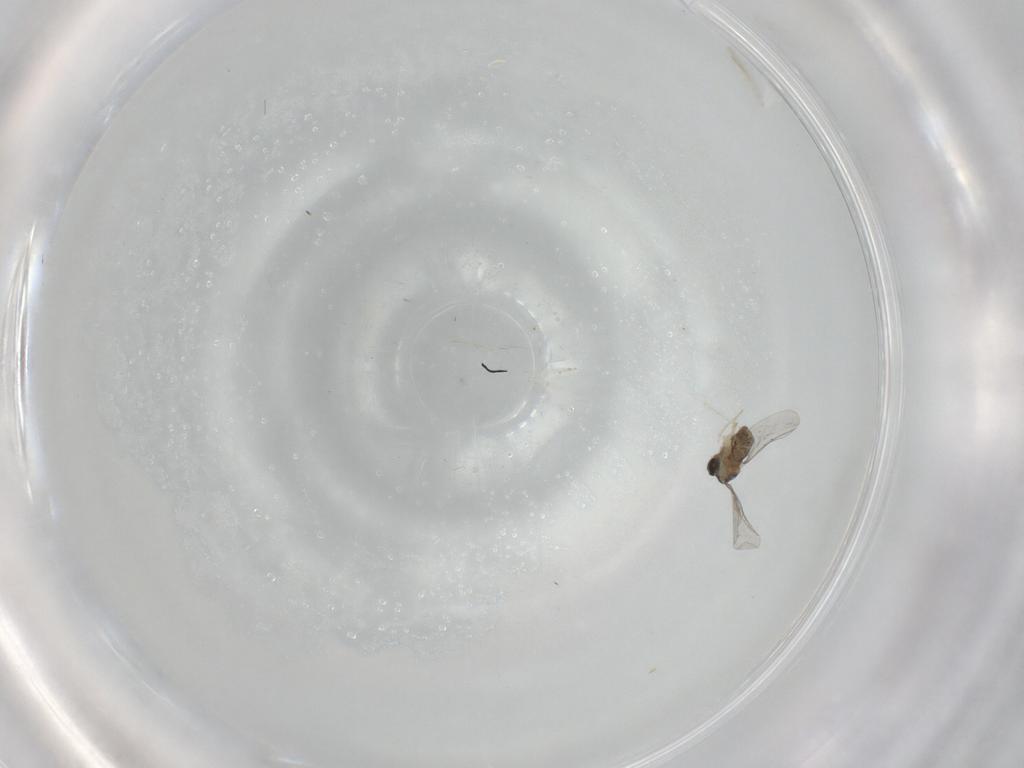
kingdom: Animalia
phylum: Arthropoda
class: Insecta
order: Diptera
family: Cecidomyiidae
